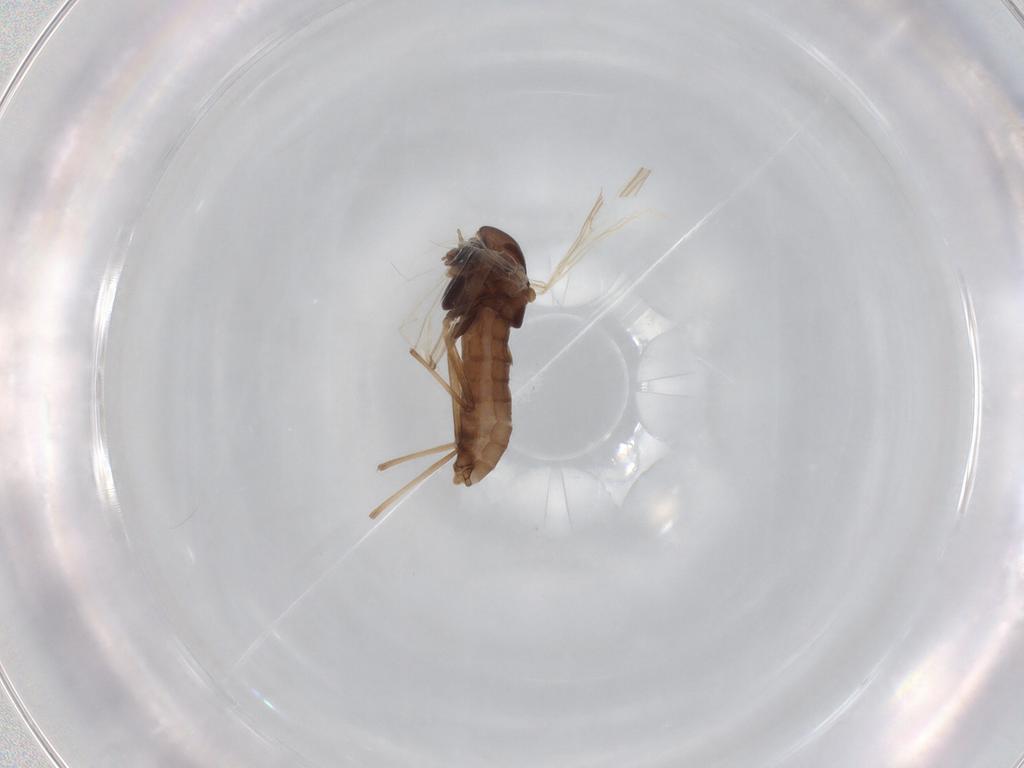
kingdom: Animalia
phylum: Arthropoda
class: Insecta
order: Diptera
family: Chironomidae
